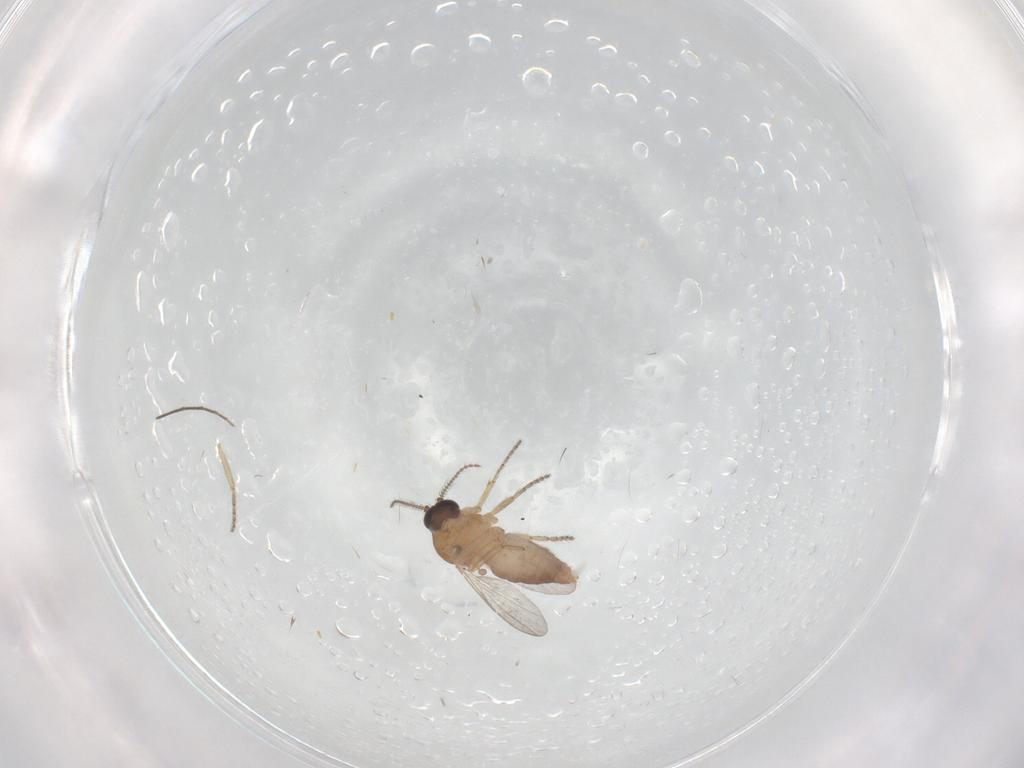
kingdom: Animalia
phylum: Arthropoda
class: Insecta
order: Diptera
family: Ceratopogonidae
